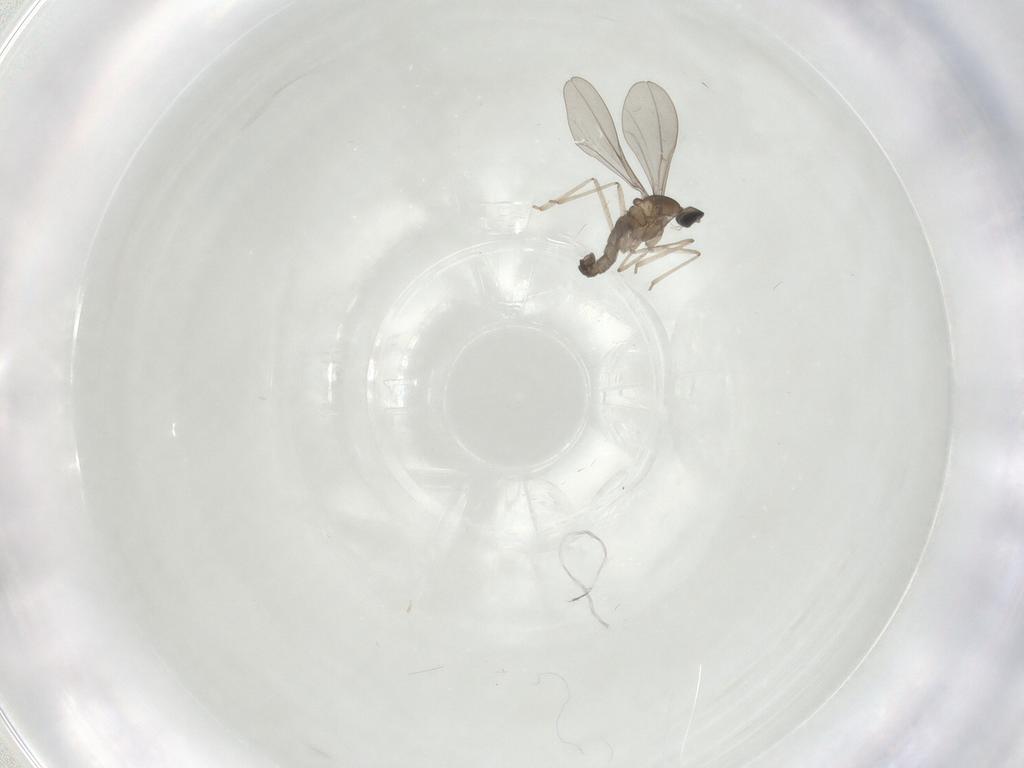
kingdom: Animalia
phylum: Arthropoda
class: Insecta
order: Diptera
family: Cecidomyiidae
